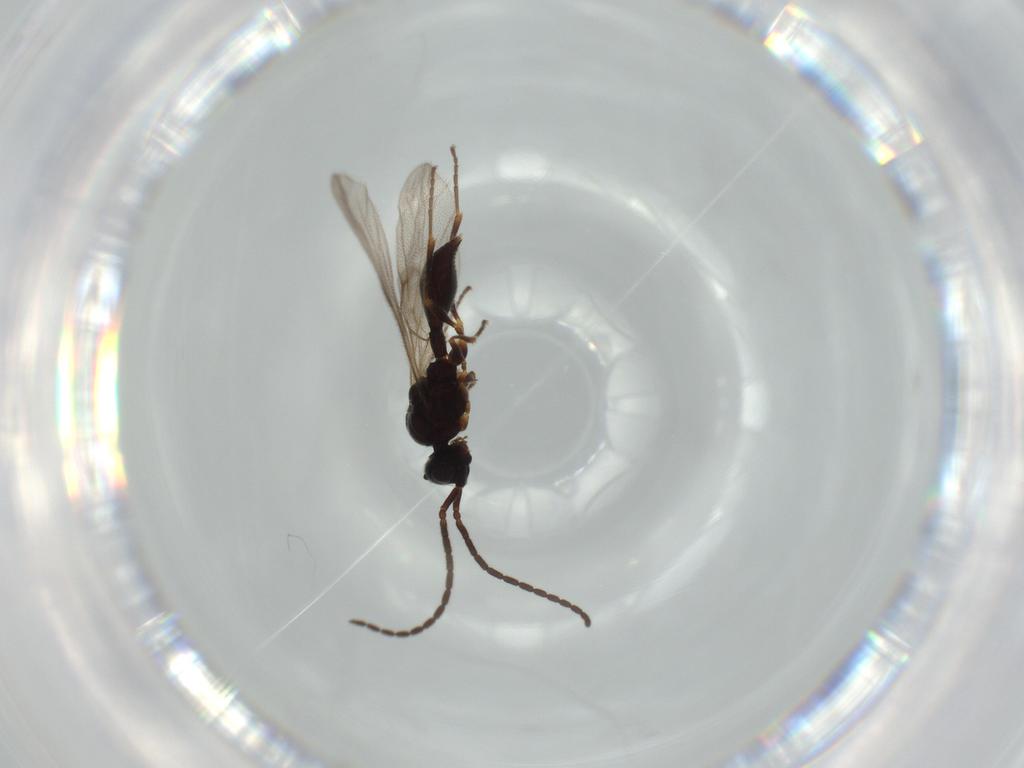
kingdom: Animalia
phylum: Arthropoda
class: Insecta
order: Hymenoptera
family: Ichneumonidae
